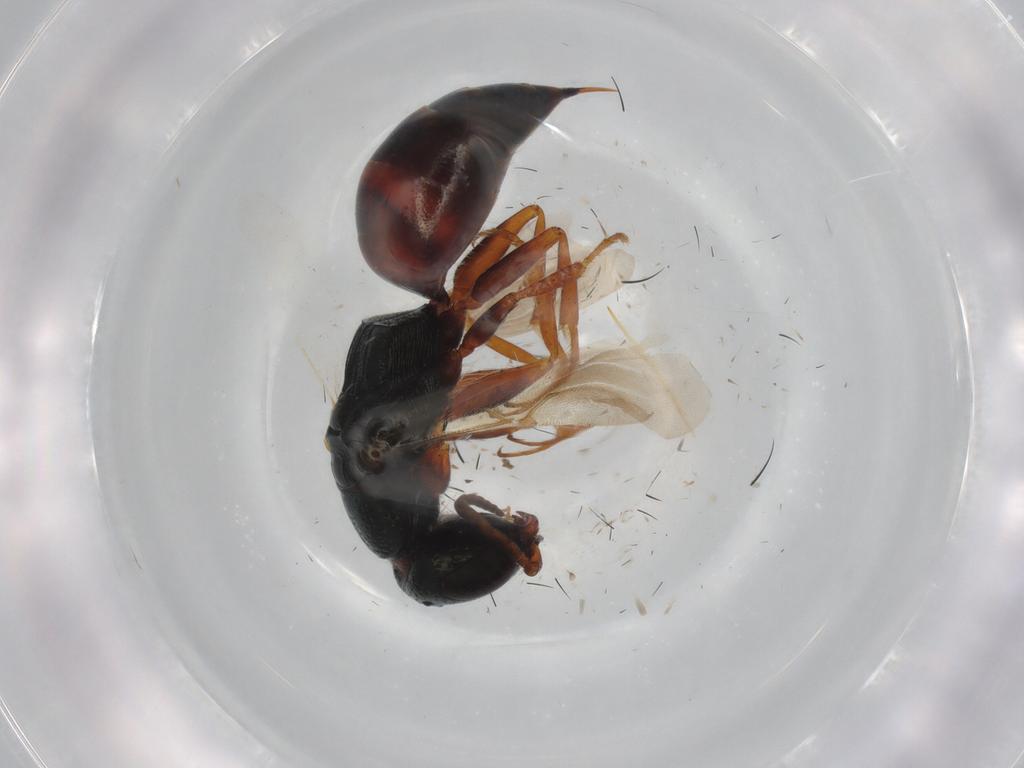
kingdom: Animalia
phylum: Arthropoda
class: Insecta
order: Hymenoptera
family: Bethylidae
